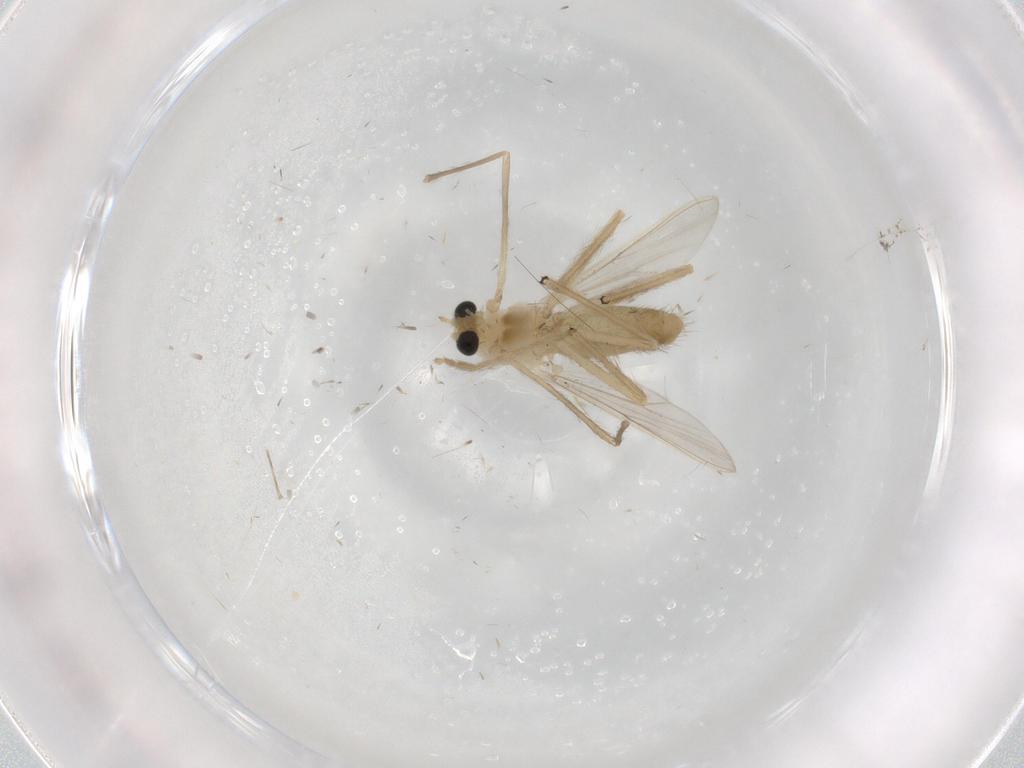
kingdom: Animalia
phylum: Arthropoda
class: Insecta
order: Diptera
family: Chironomidae
